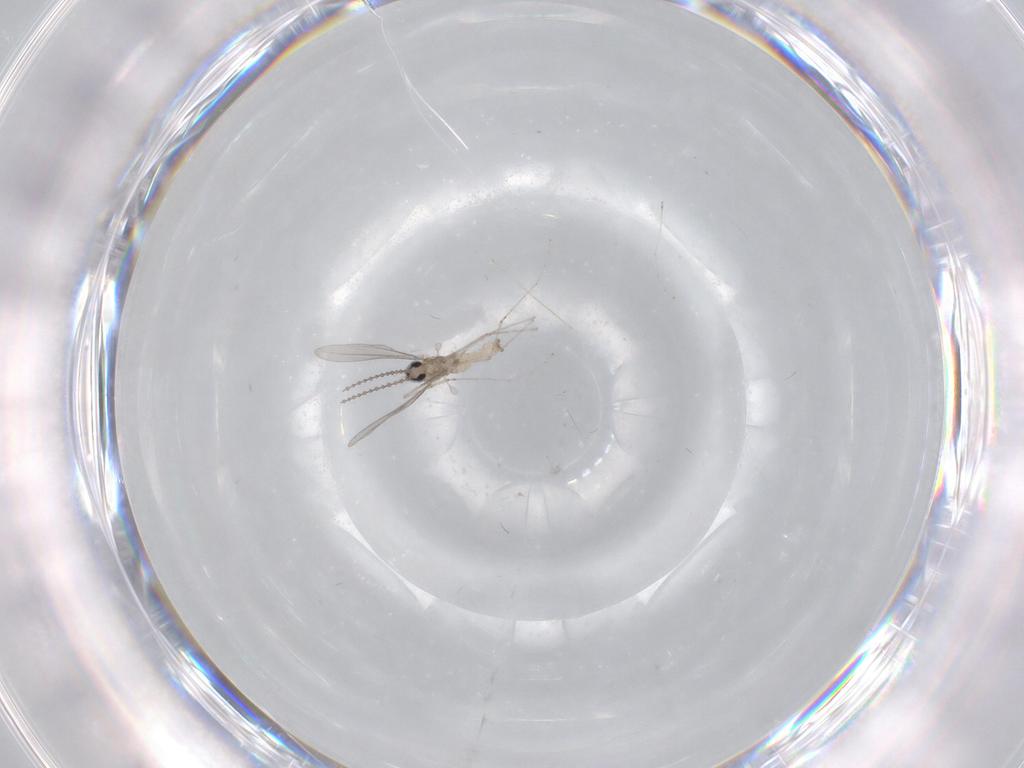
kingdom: Animalia
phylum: Arthropoda
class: Insecta
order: Diptera
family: Cecidomyiidae
